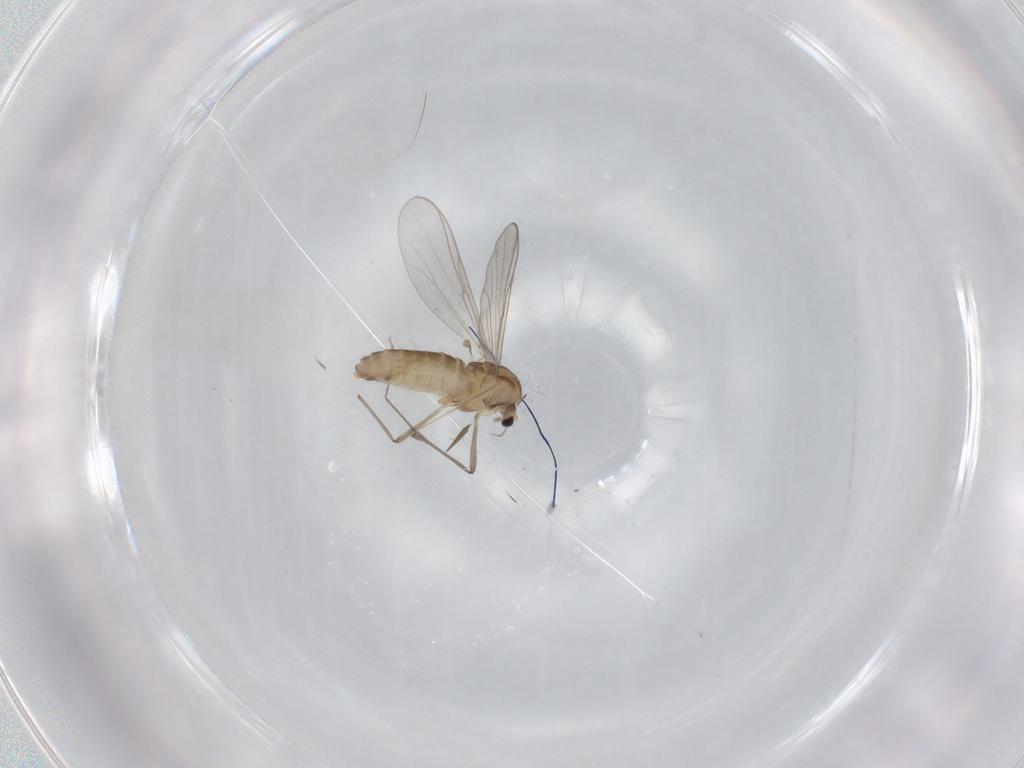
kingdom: Animalia
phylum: Arthropoda
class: Insecta
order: Diptera
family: Chironomidae
